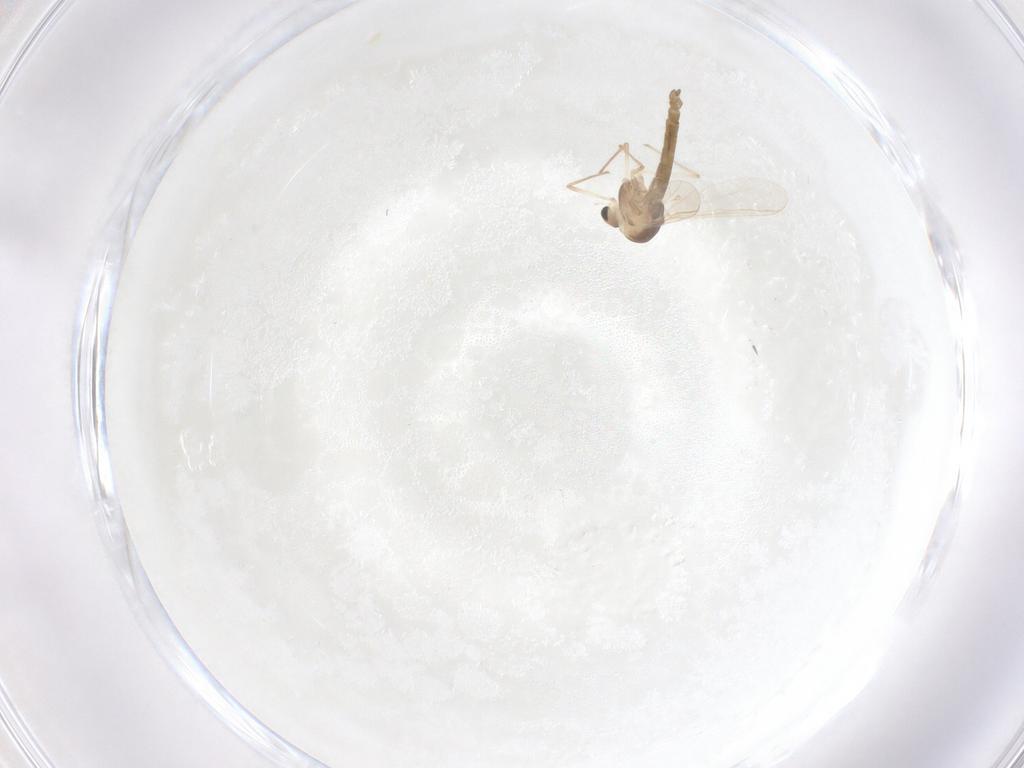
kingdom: Animalia
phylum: Arthropoda
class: Insecta
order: Diptera
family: Chironomidae
